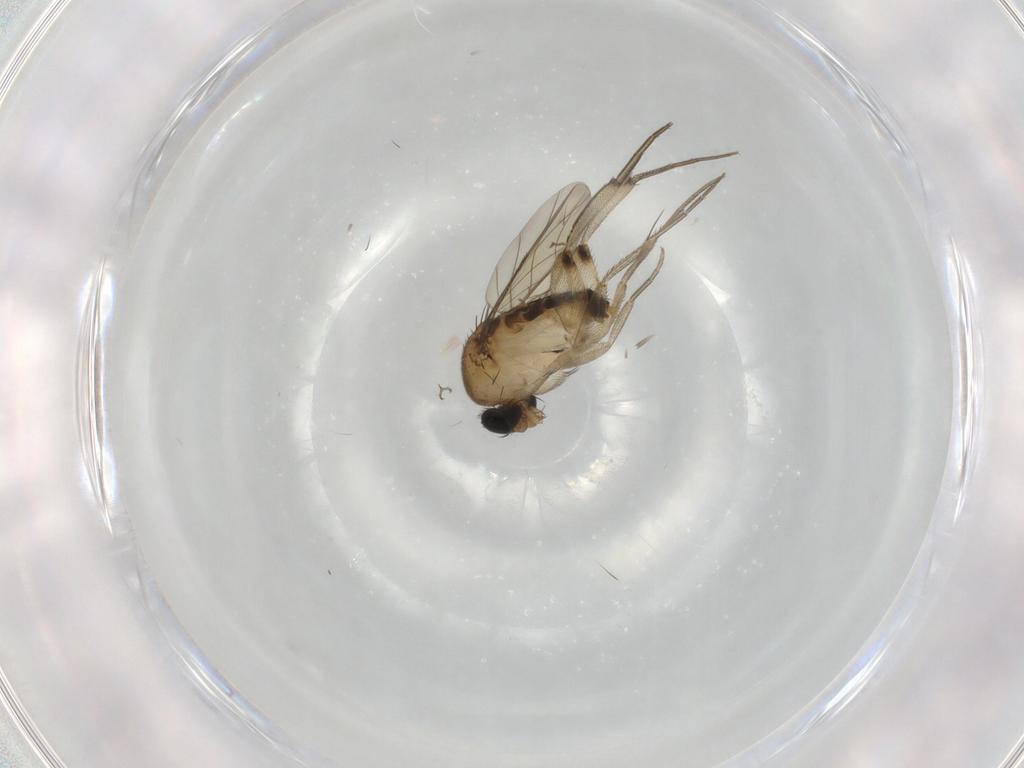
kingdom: Animalia
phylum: Arthropoda
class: Insecta
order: Diptera
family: Phoridae
